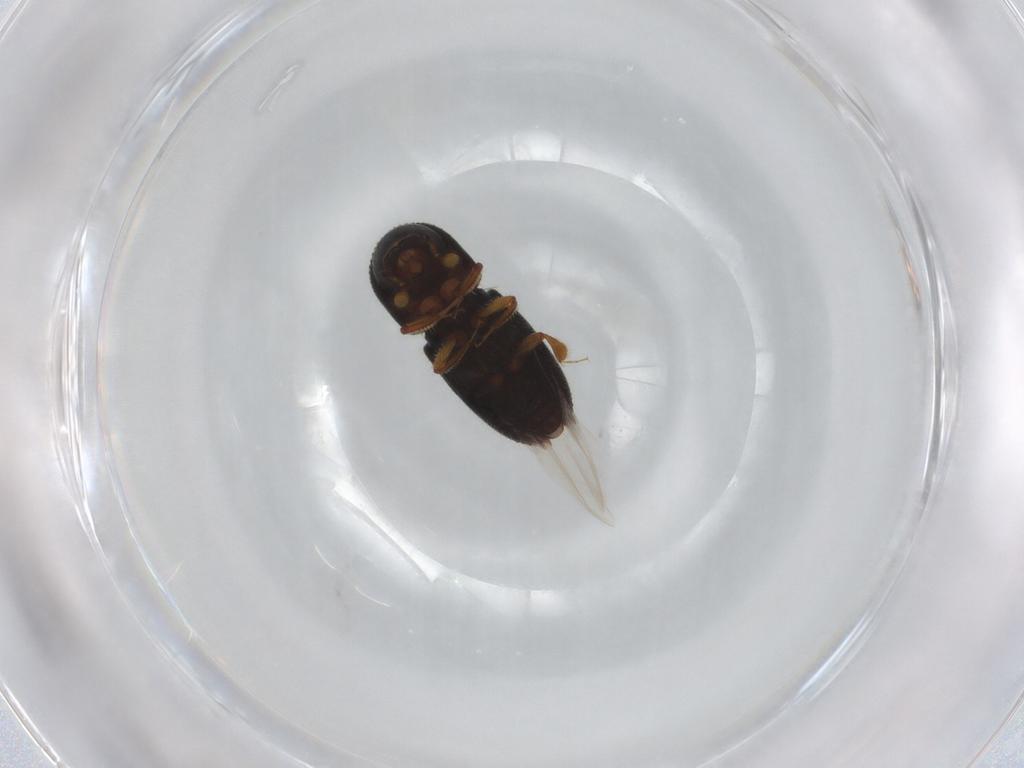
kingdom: Animalia
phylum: Arthropoda
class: Insecta
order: Coleoptera
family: Curculionidae
